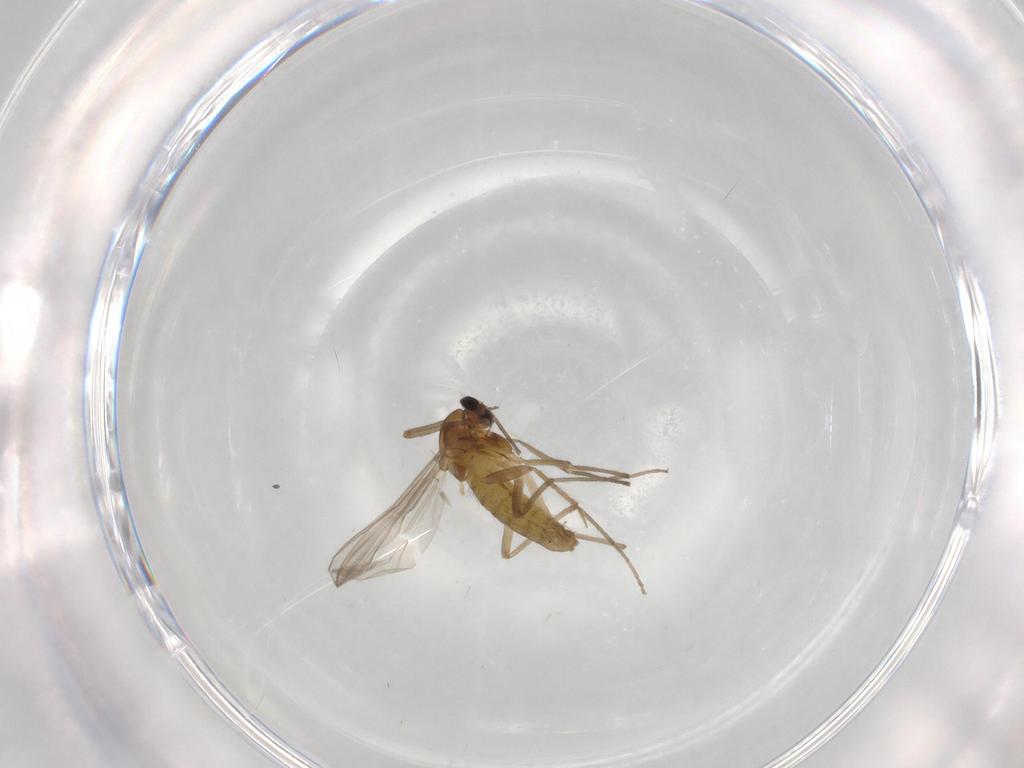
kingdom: Animalia
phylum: Arthropoda
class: Insecta
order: Diptera
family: Chironomidae
